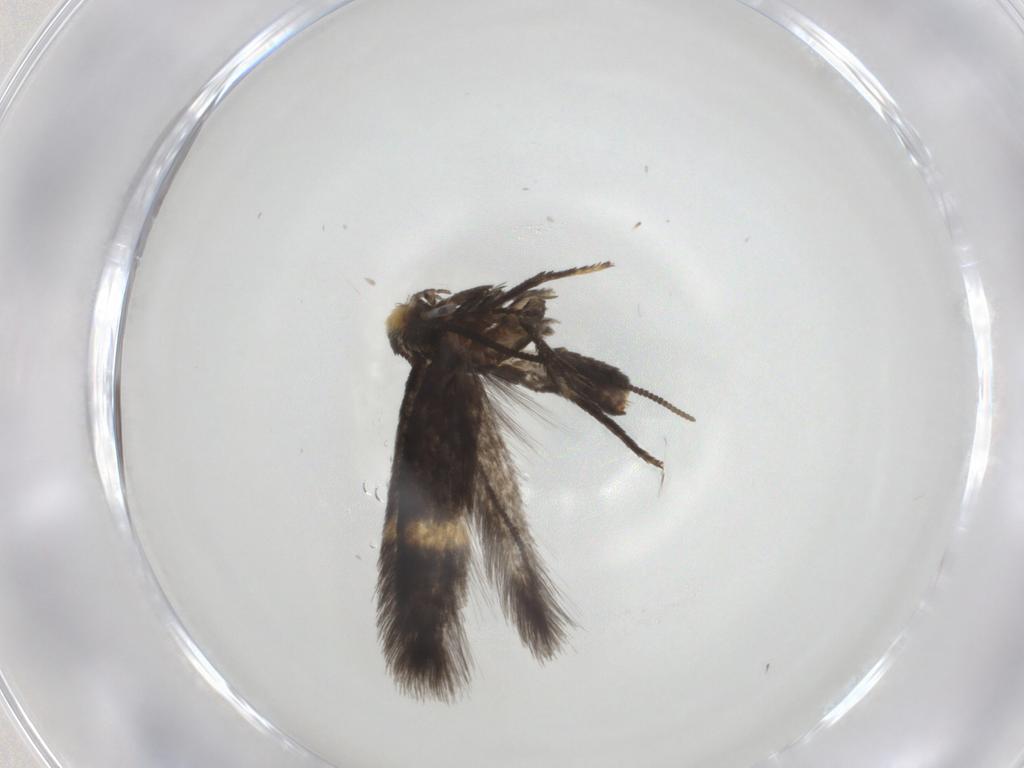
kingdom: Animalia
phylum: Arthropoda
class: Insecta
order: Lepidoptera
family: Nepticulidae
